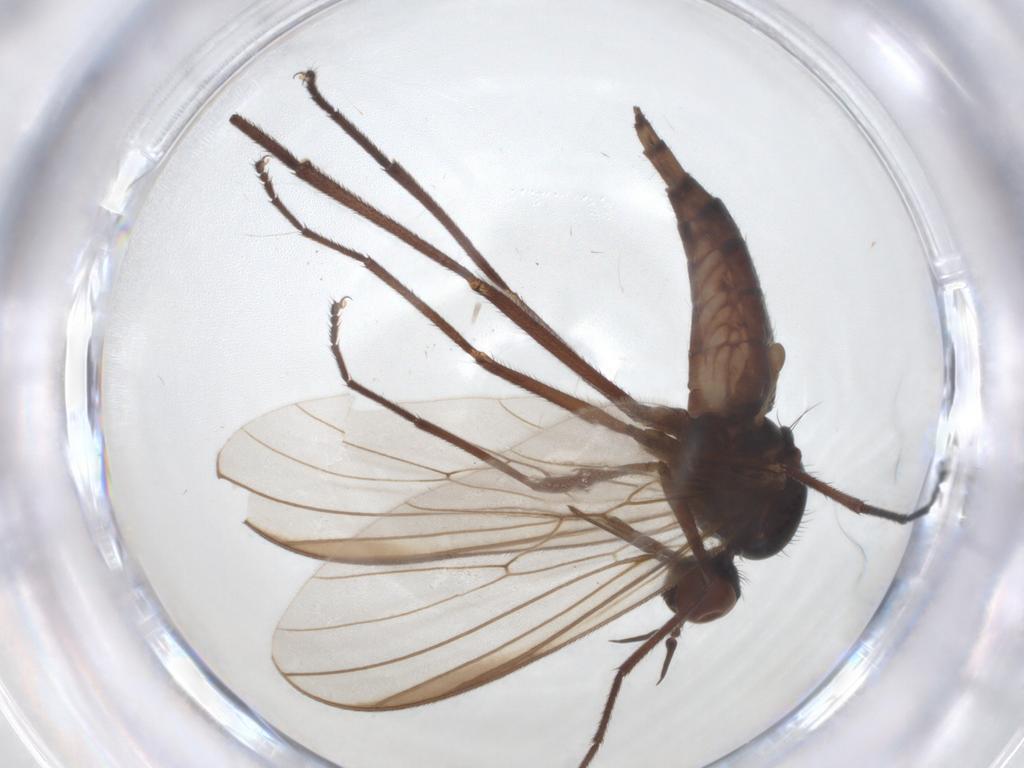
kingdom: Animalia
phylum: Arthropoda
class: Insecta
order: Diptera
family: Empididae
